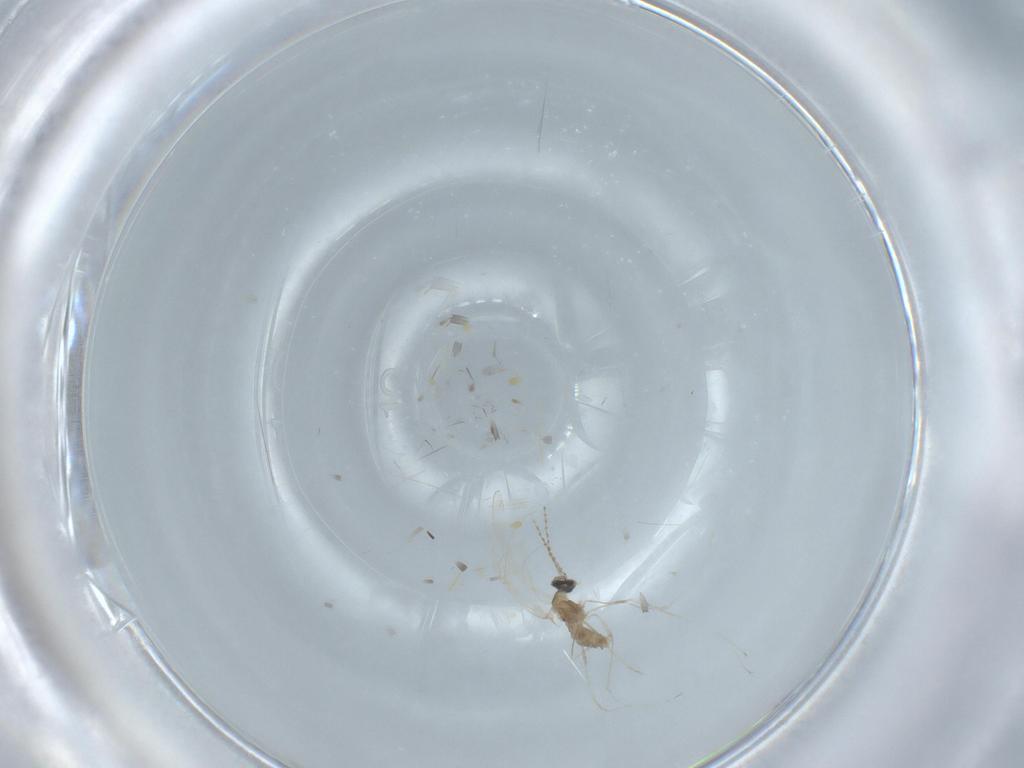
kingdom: Animalia
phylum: Arthropoda
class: Insecta
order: Diptera
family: Cecidomyiidae
